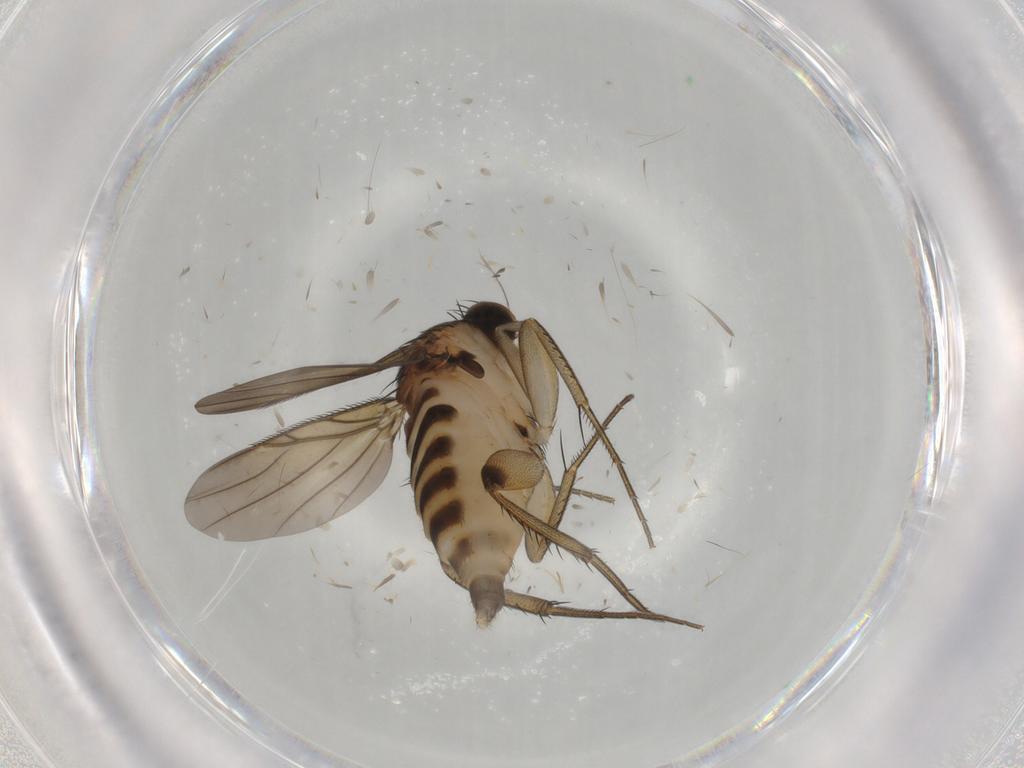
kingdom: Animalia
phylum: Arthropoda
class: Insecta
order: Diptera
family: Phoridae
